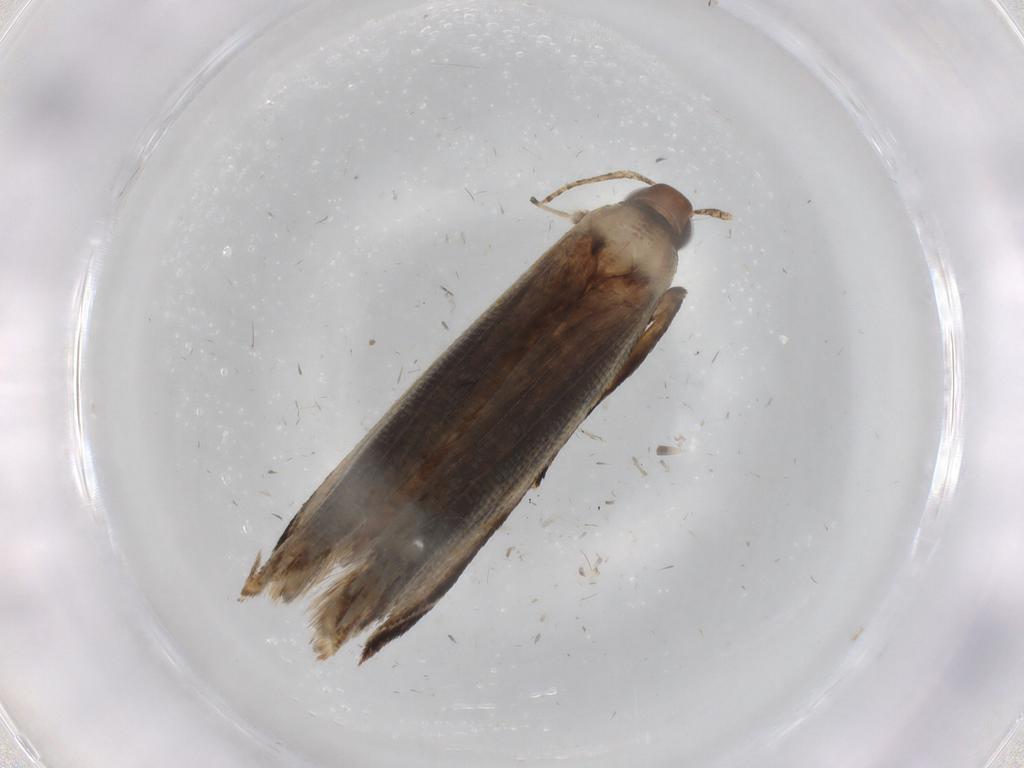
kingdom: Animalia
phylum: Arthropoda
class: Insecta
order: Lepidoptera
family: Gelechiidae
